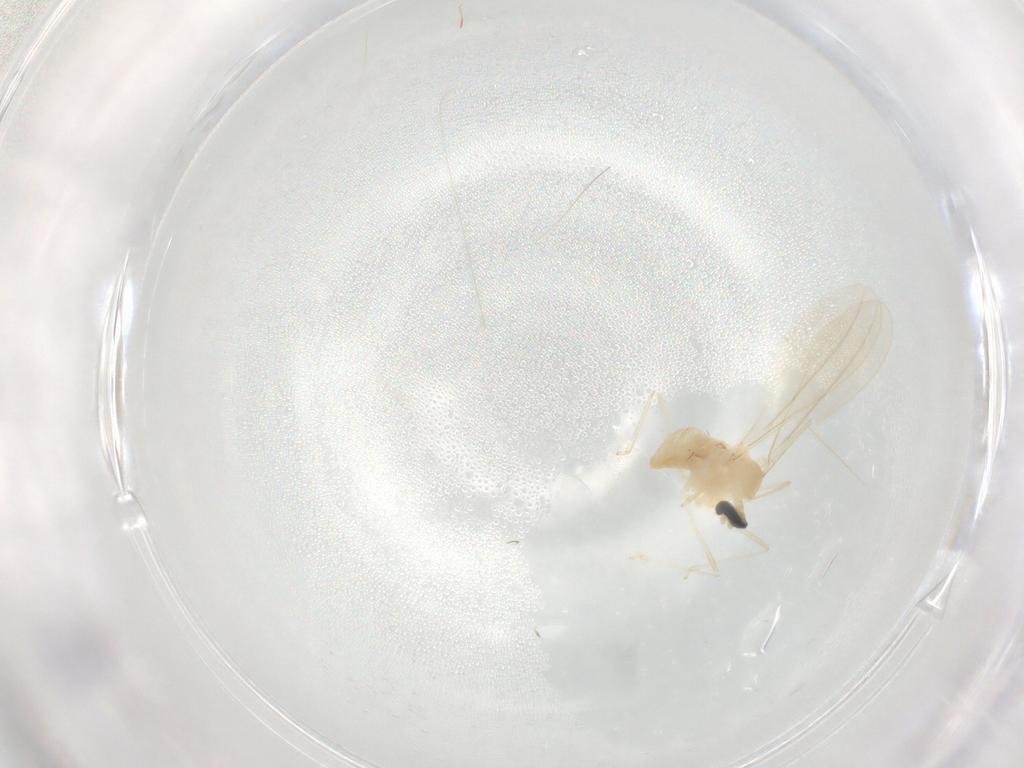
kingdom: Animalia
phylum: Arthropoda
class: Insecta
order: Diptera
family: Cecidomyiidae
